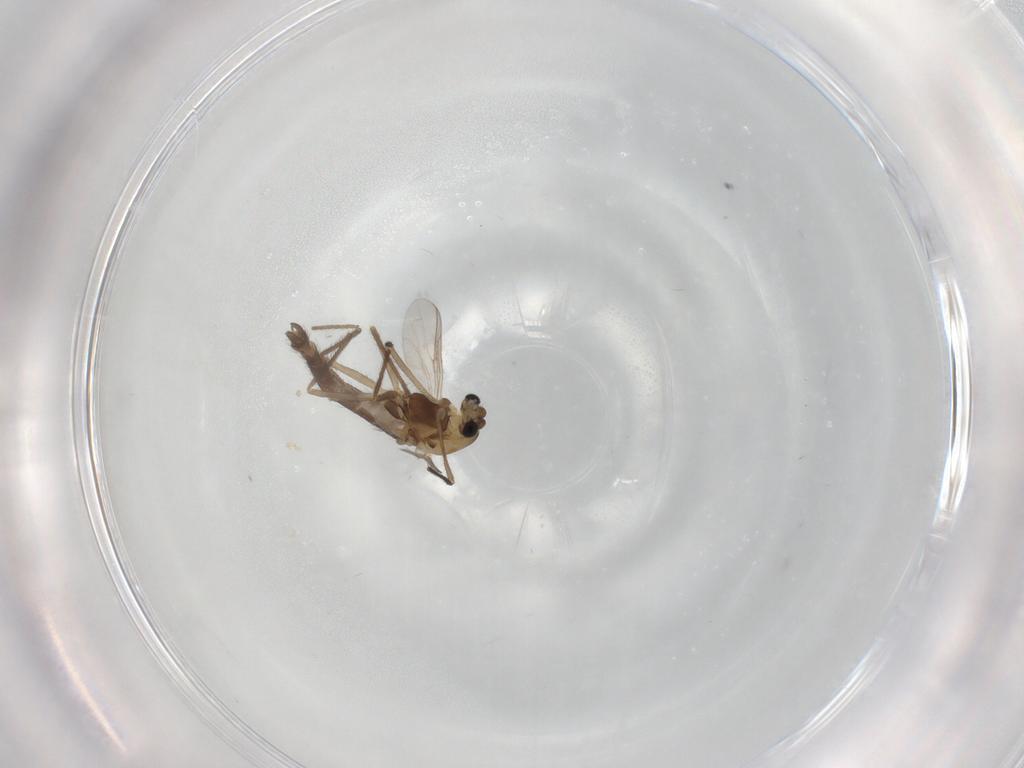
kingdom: Animalia
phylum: Arthropoda
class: Insecta
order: Diptera
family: Chironomidae
